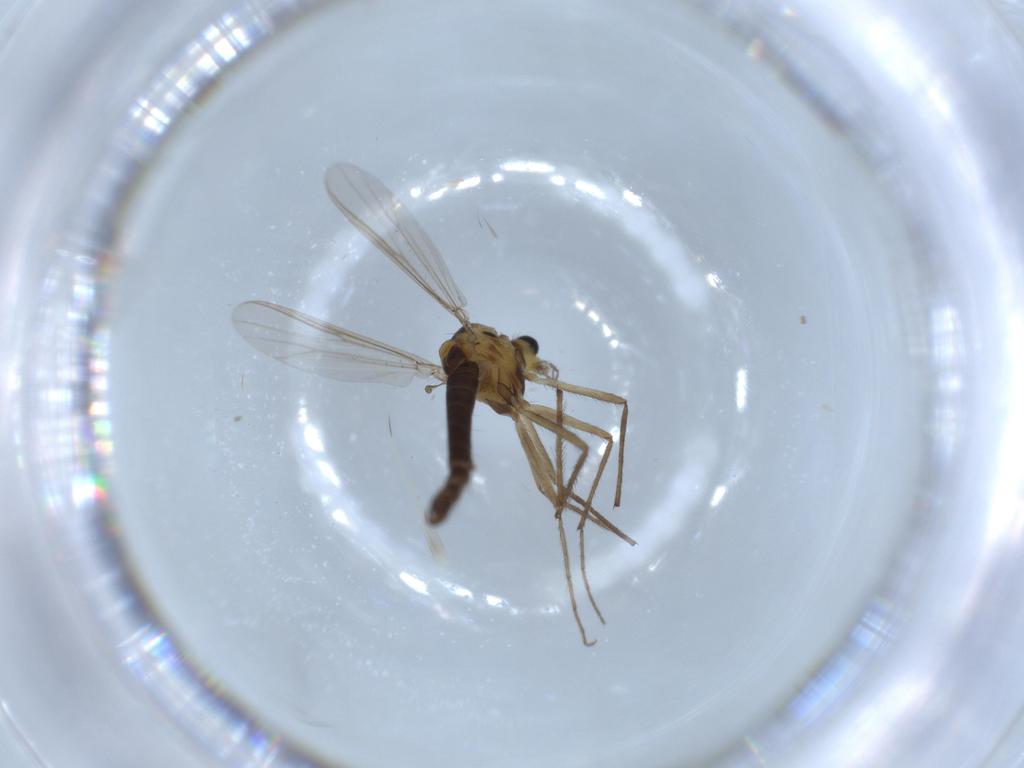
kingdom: Animalia
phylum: Arthropoda
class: Insecta
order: Diptera
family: Chironomidae
